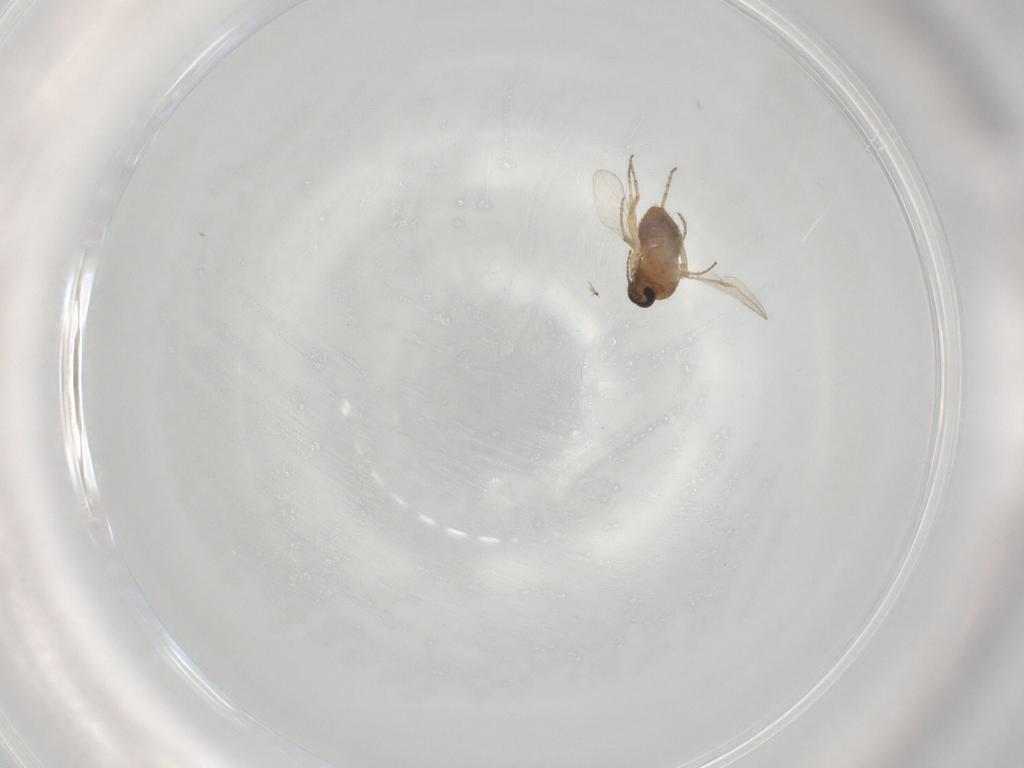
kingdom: Animalia
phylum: Arthropoda
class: Insecta
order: Diptera
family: Ceratopogonidae
